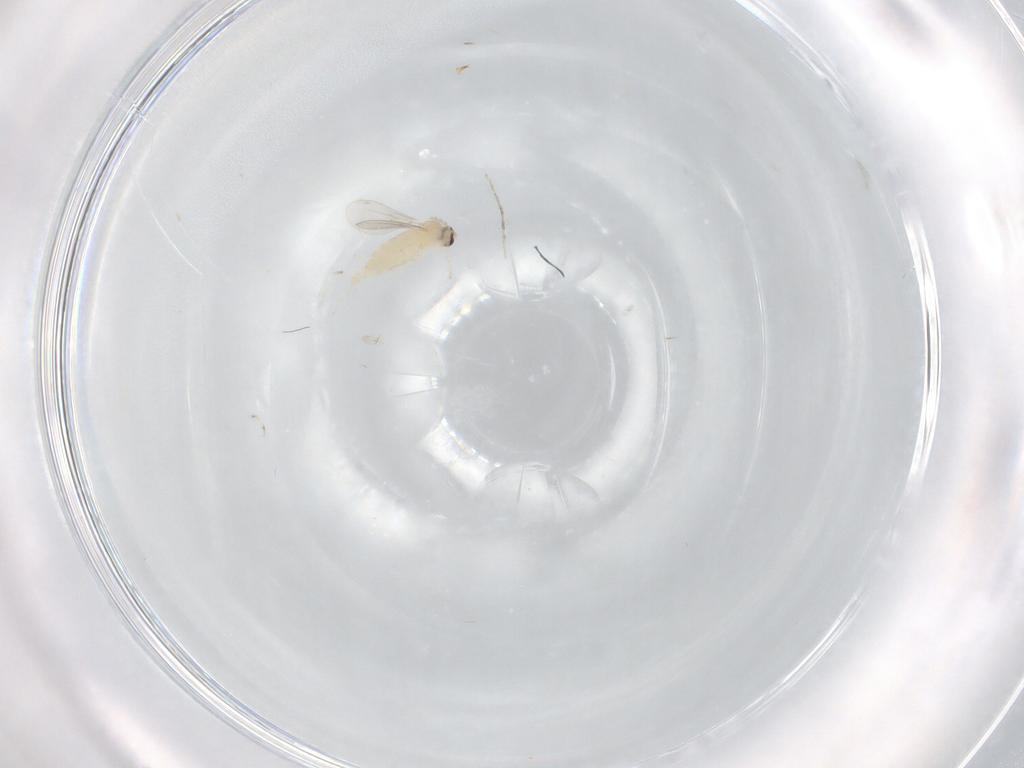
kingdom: Animalia
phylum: Arthropoda
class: Insecta
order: Diptera
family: Cecidomyiidae
